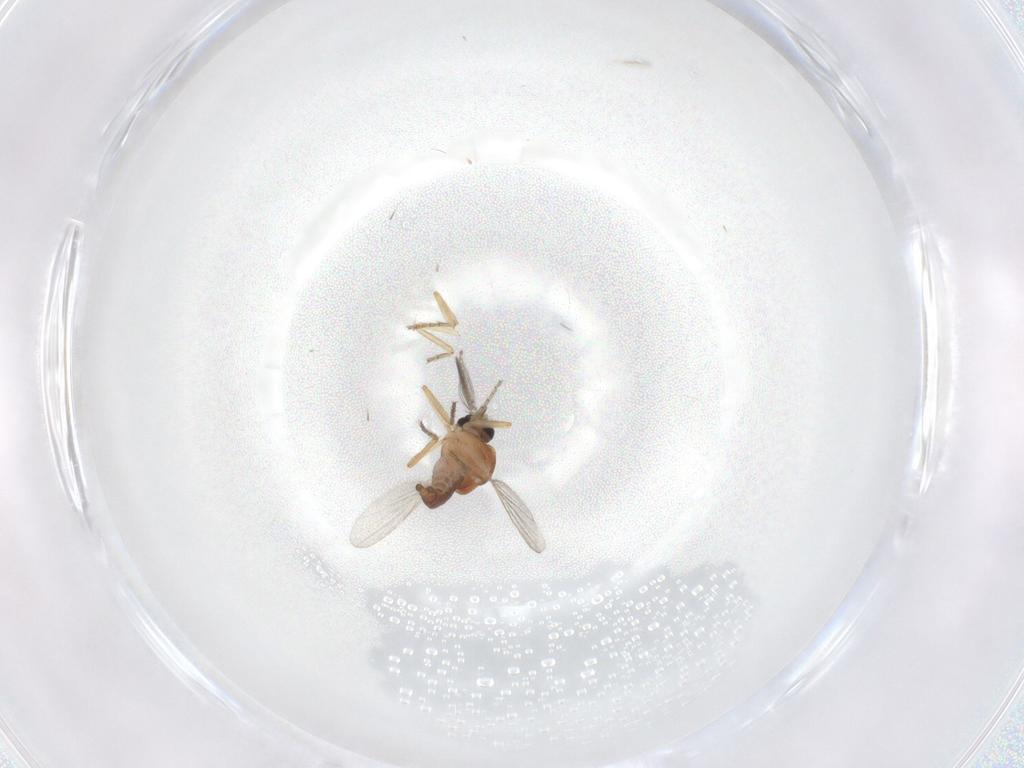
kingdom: Animalia
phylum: Arthropoda
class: Insecta
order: Diptera
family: Ceratopogonidae
